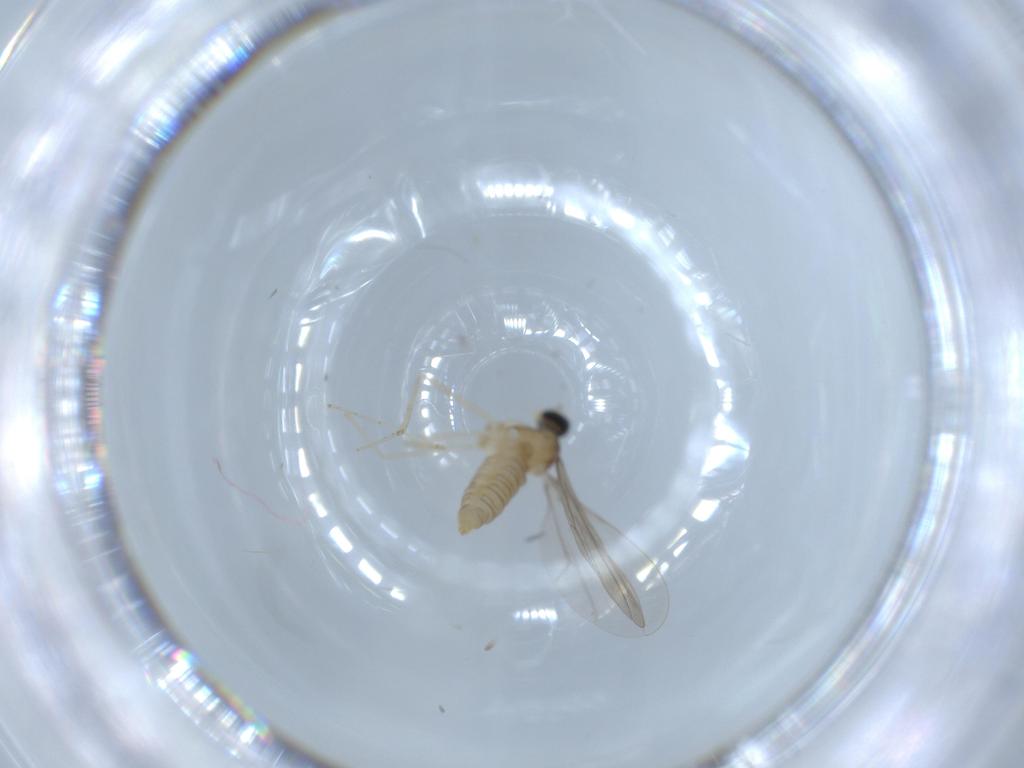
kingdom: Animalia
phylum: Arthropoda
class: Insecta
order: Diptera
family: Cecidomyiidae
